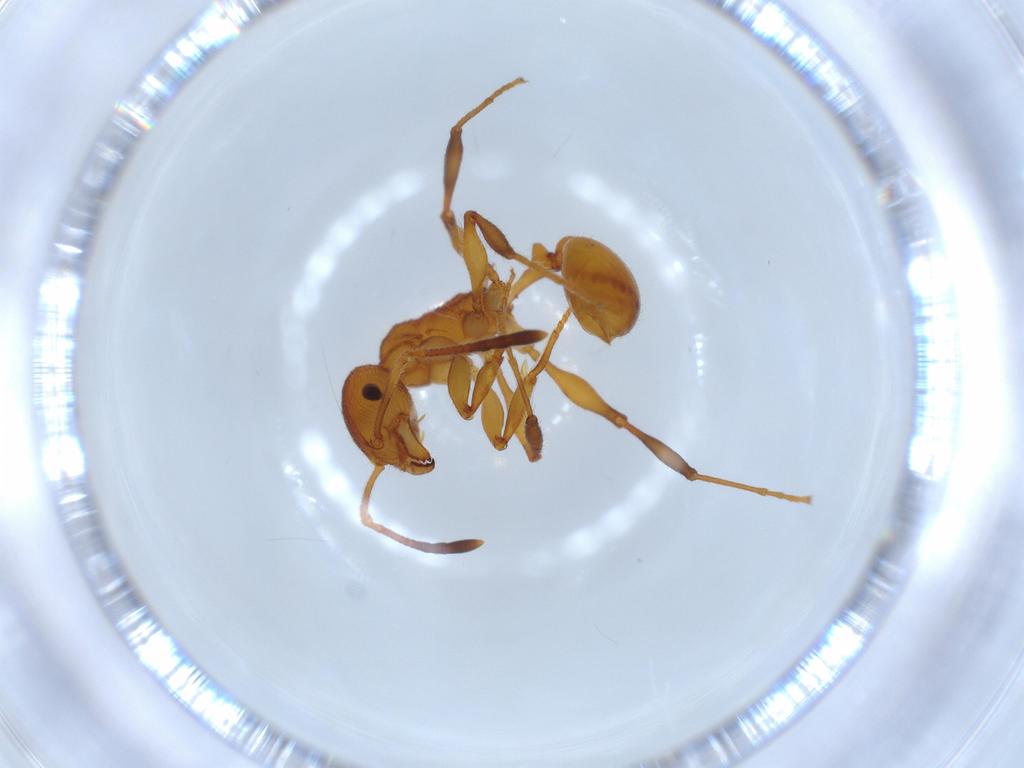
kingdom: Animalia
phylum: Arthropoda
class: Insecta
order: Hymenoptera
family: Formicidae
